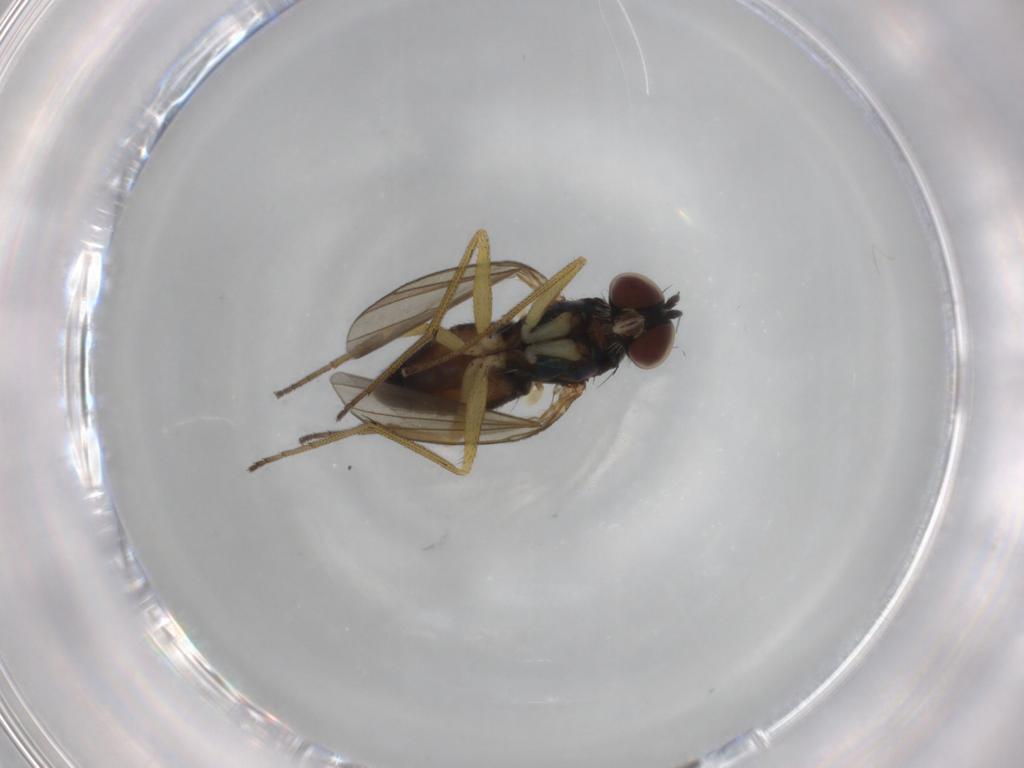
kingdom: Animalia
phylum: Arthropoda
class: Insecta
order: Diptera
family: Dolichopodidae
